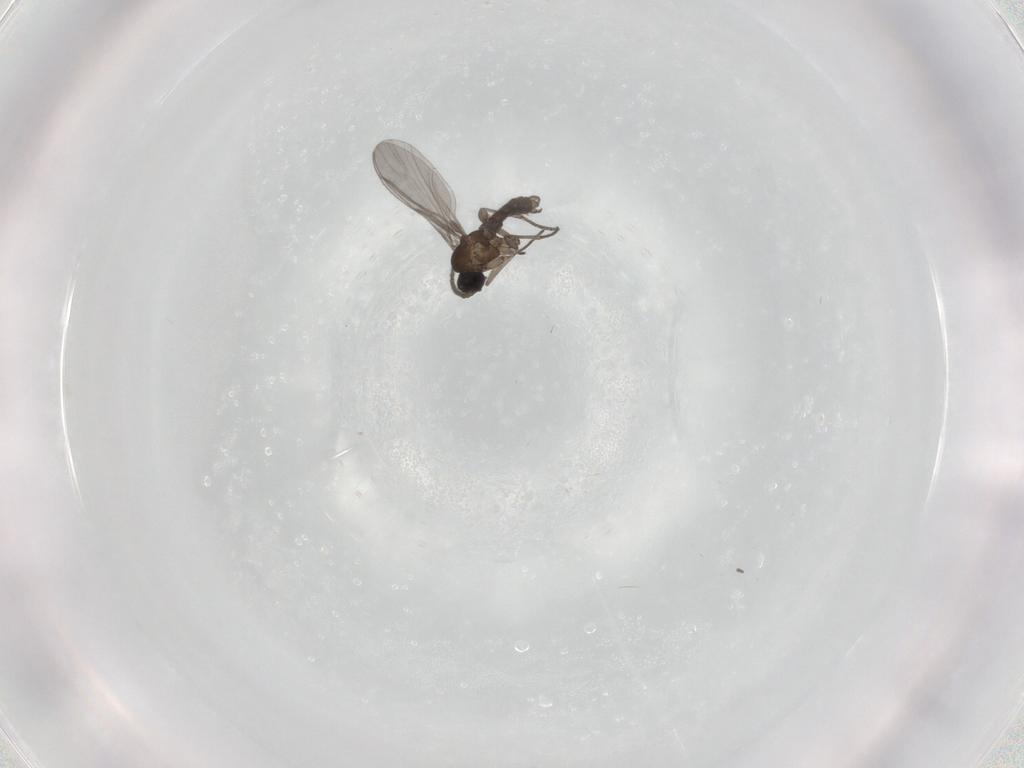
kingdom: Animalia
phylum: Arthropoda
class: Insecta
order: Diptera
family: Sciaridae
